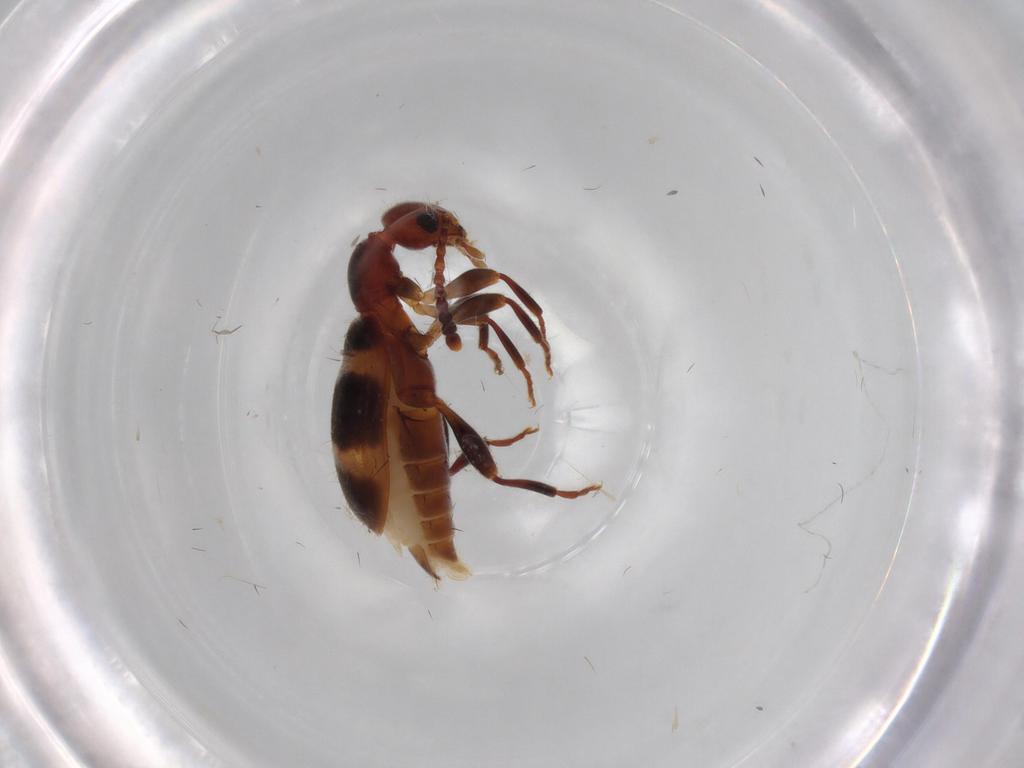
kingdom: Animalia
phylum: Arthropoda
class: Insecta
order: Coleoptera
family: Anthicidae
